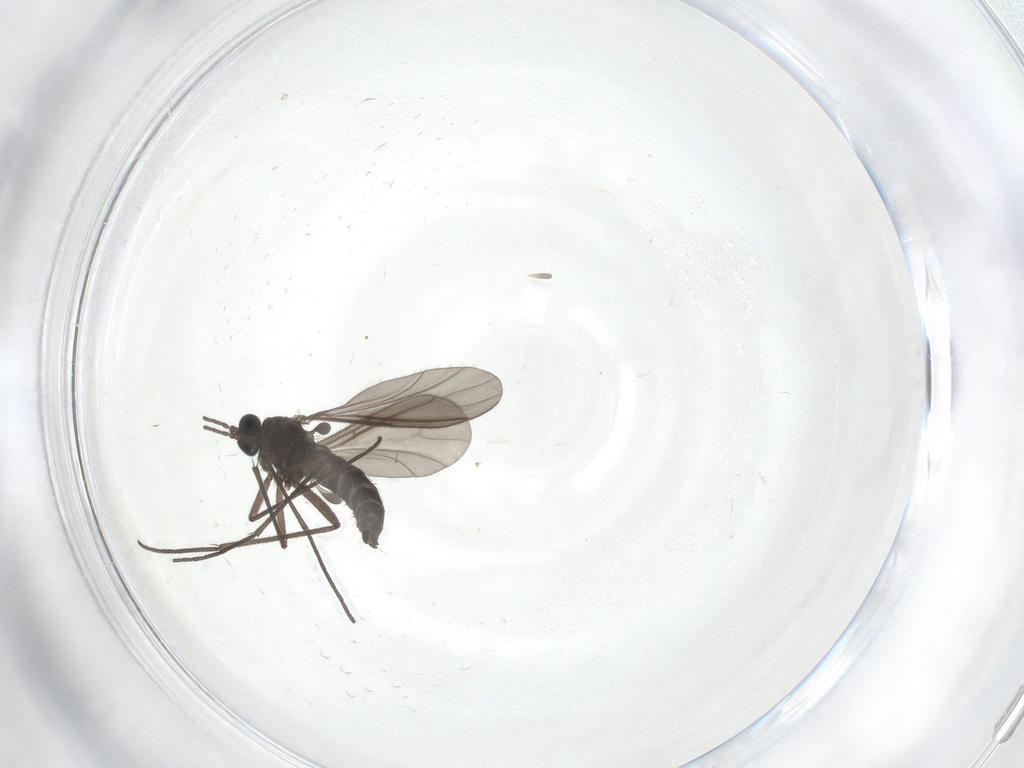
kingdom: Animalia
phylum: Arthropoda
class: Insecta
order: Diptera
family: Sciaridae
